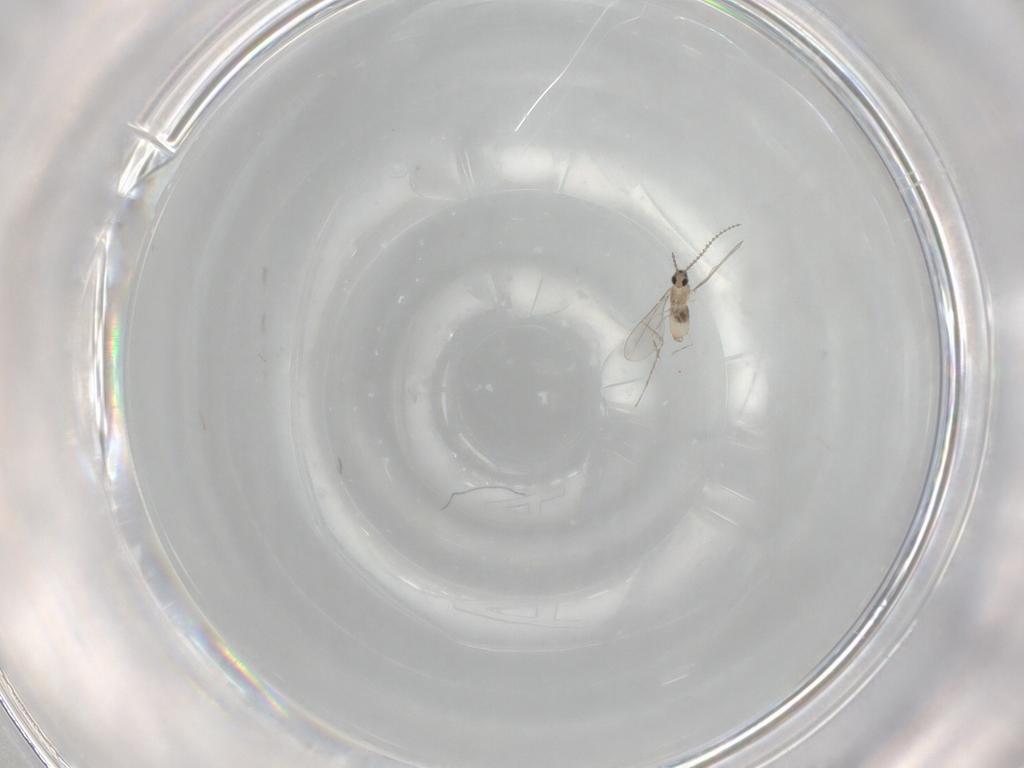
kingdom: Animalia
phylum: Arthropoda
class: Insecta
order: Diptera
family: Cecidomyiidae
